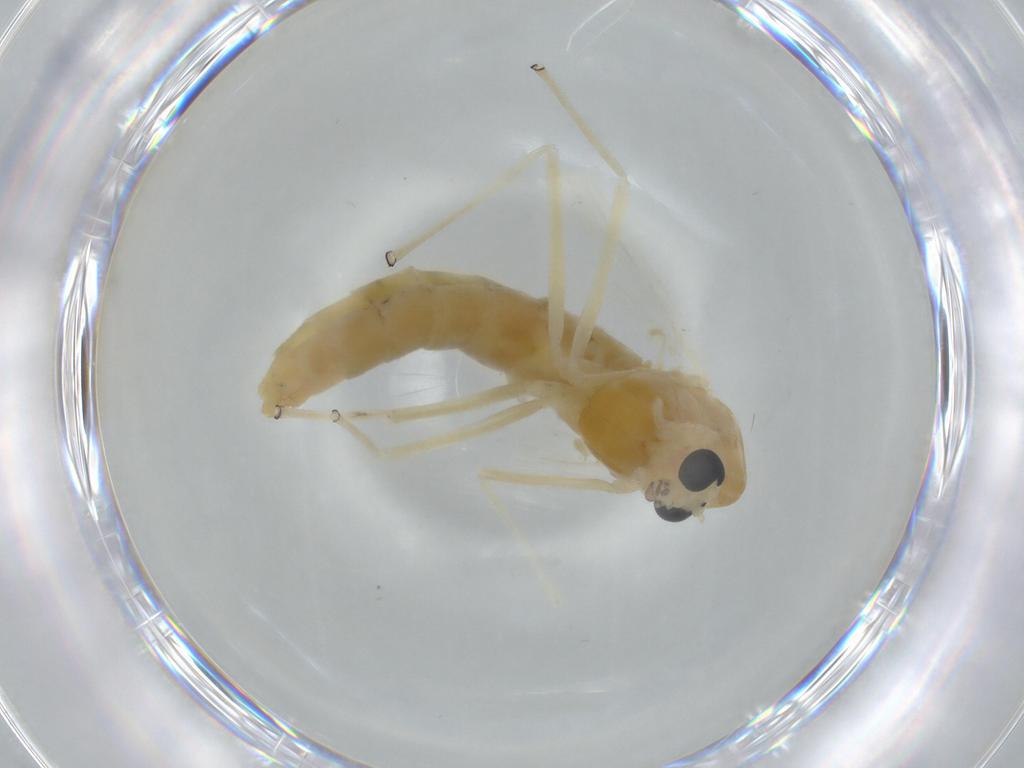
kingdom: Animalia
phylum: Arthropoda
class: Insecta
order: Diptera
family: Chironomidae
